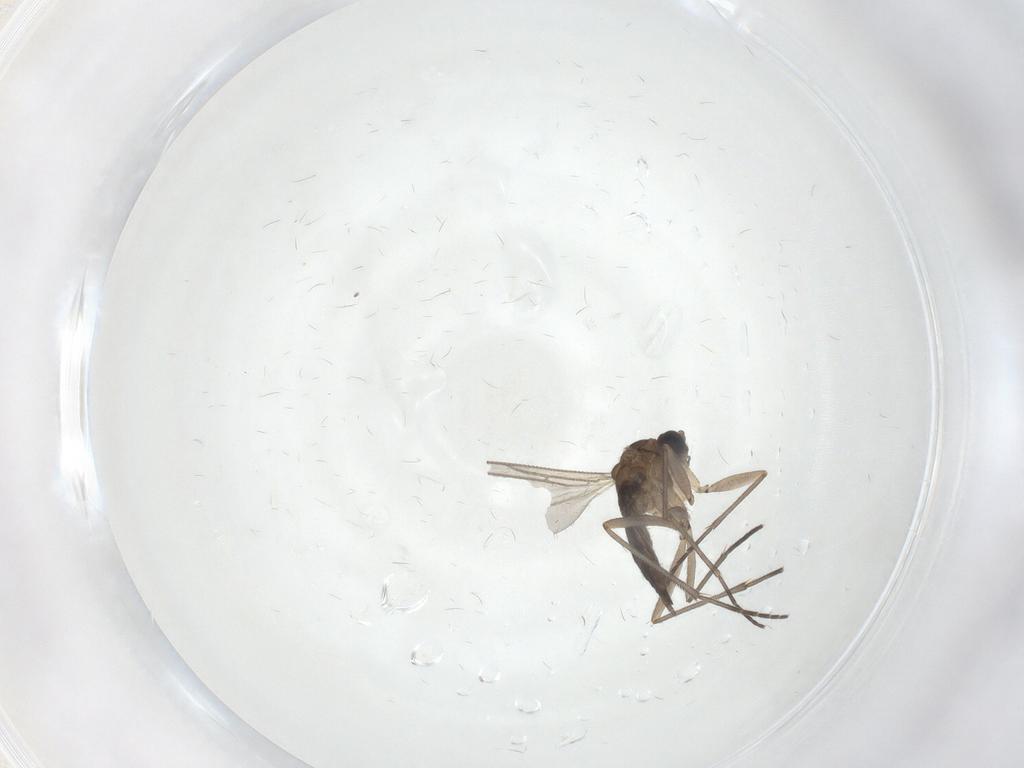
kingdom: Animalia
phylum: Arthropoda
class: Insecta
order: Diptera
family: Sciaridae
